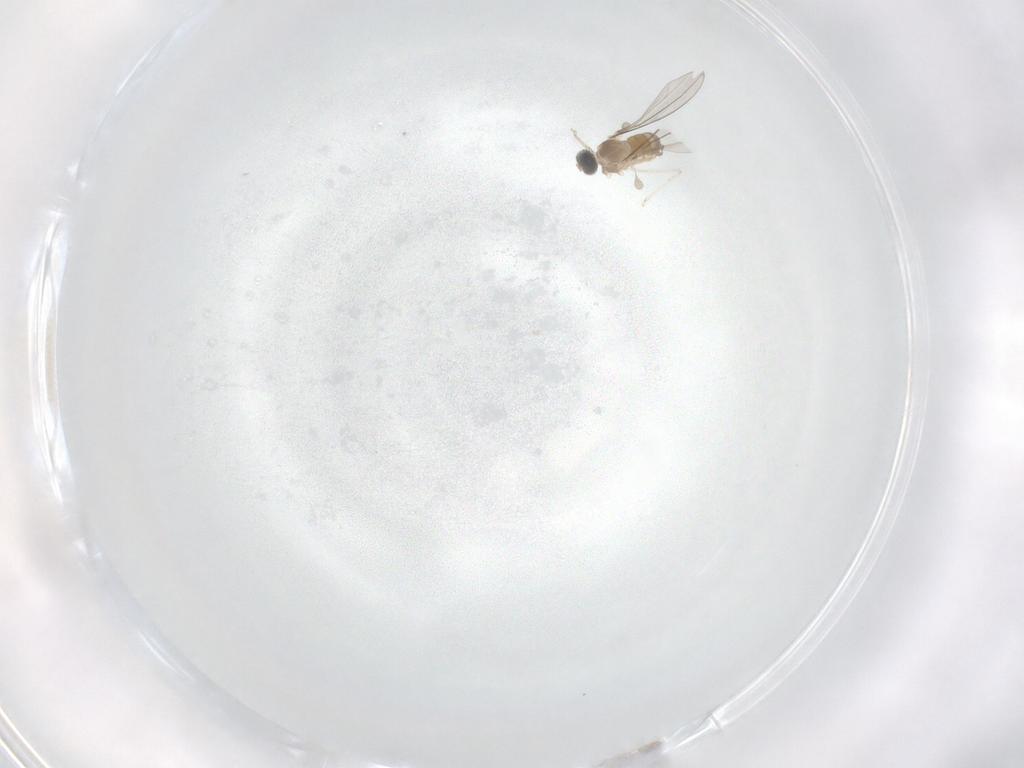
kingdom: Animalia
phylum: Arthropoda
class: Insecta
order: Diptera
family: Cecidomyiidae
